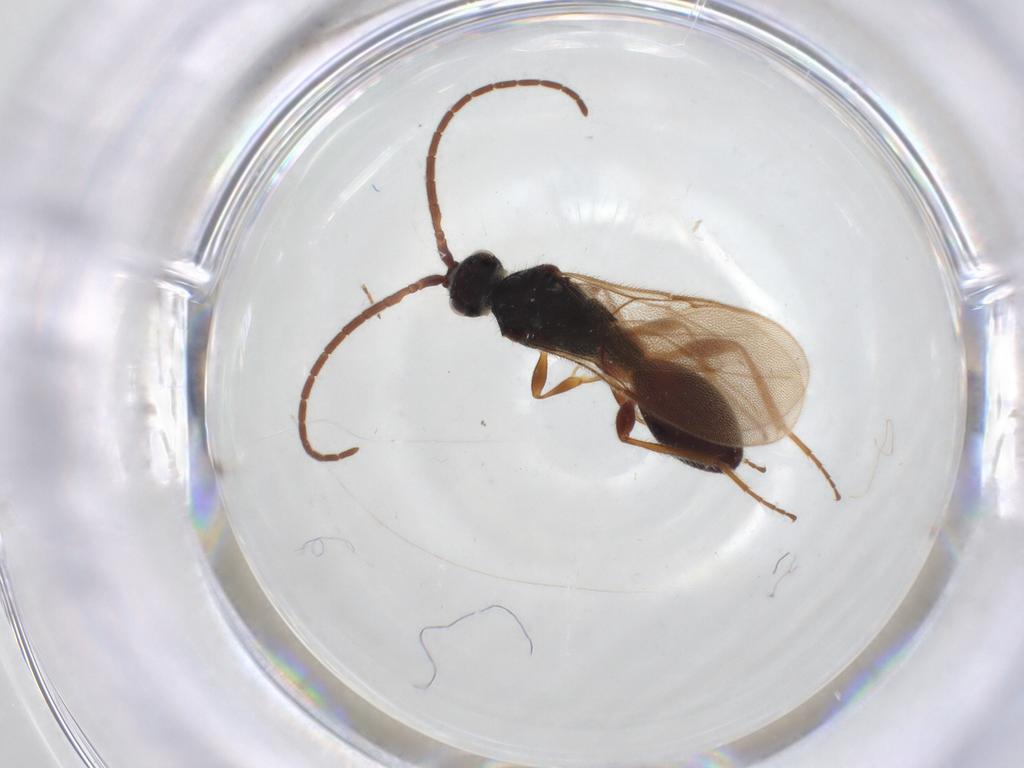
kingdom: Animalia
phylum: Arthropoda
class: Insecta
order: Hymenoptera
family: Diapriidae
